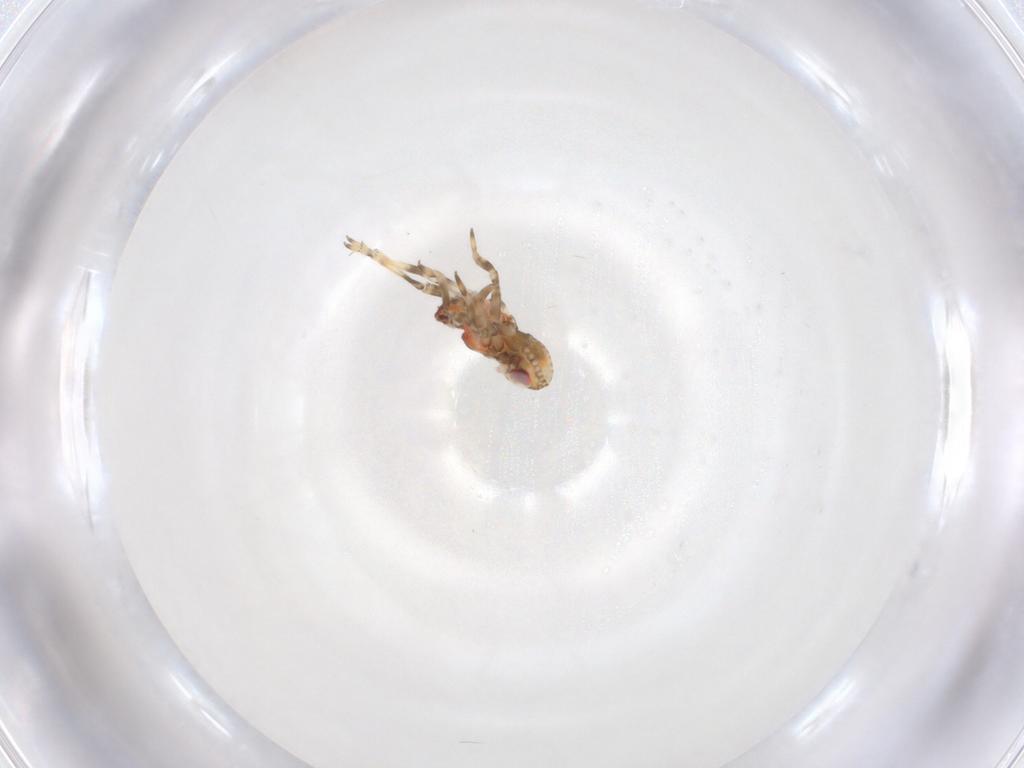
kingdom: Animalia
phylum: Arthropoda
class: Insecta
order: Hemiptera
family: Tropiduchidae
